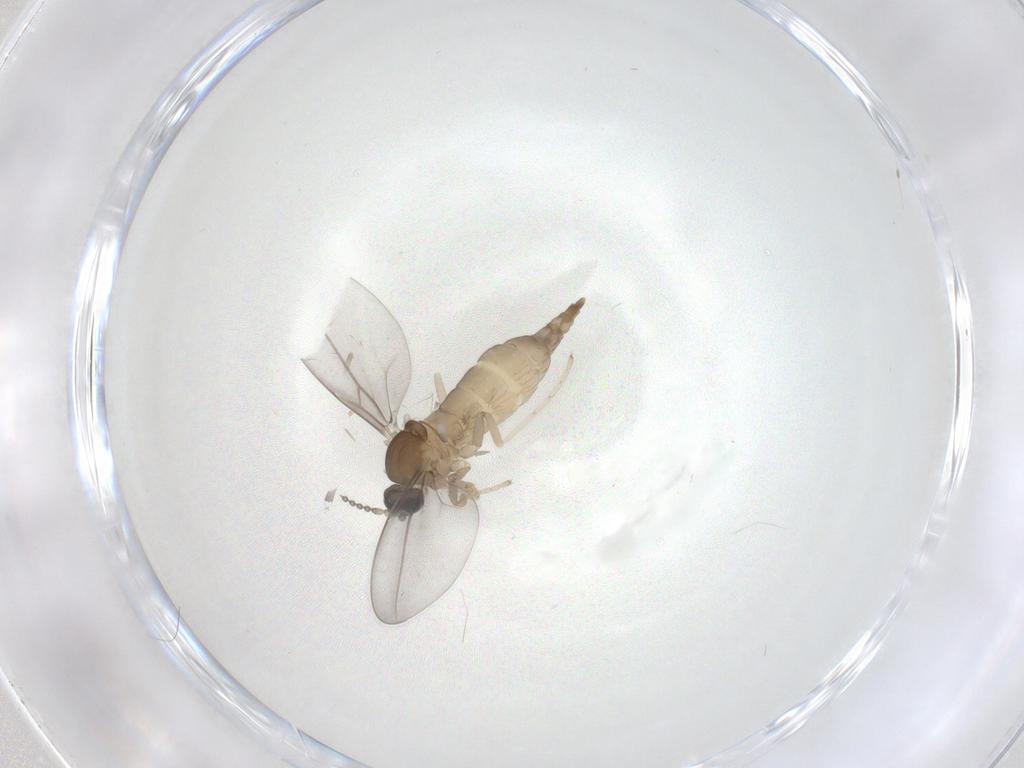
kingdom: Animalia
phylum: Arthropoda
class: Insecta
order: Diptera
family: Cecidomyiidae
